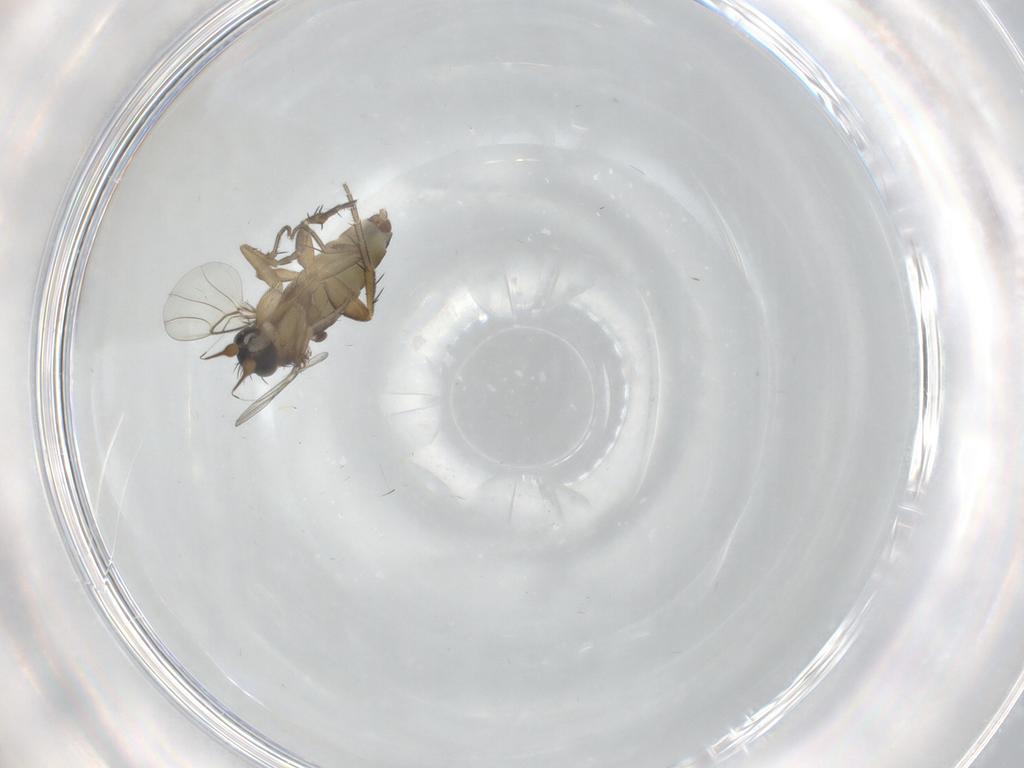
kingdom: Animalia
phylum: Arthropoda
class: Insecta
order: Diptera
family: Phoridae
